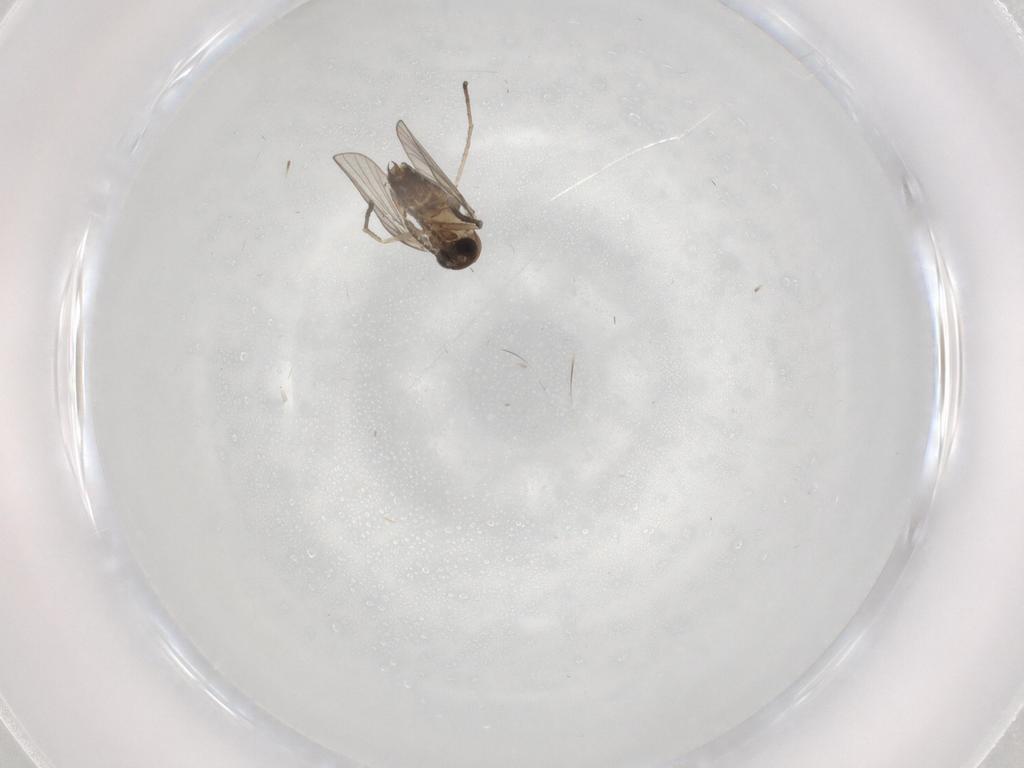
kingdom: Animalia
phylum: Arthropoda
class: Insecta
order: Diptera
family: Psychodidae
